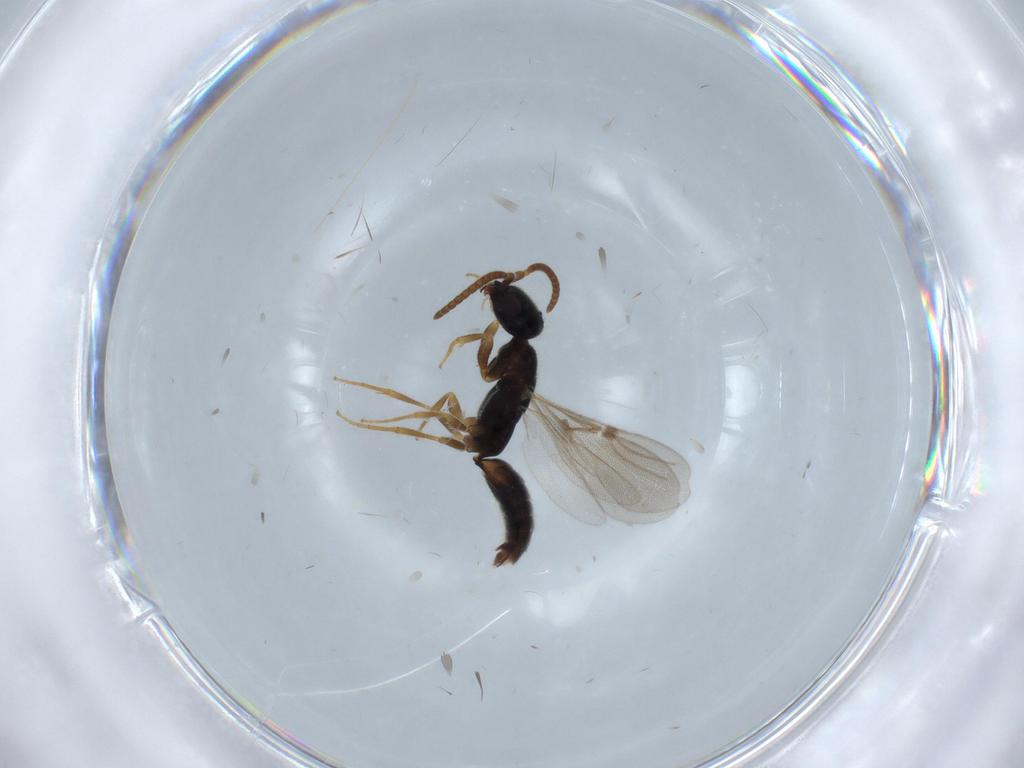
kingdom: Animalia
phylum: Arthropoda
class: Insecta
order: Hymenoptera
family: Bethylidae
